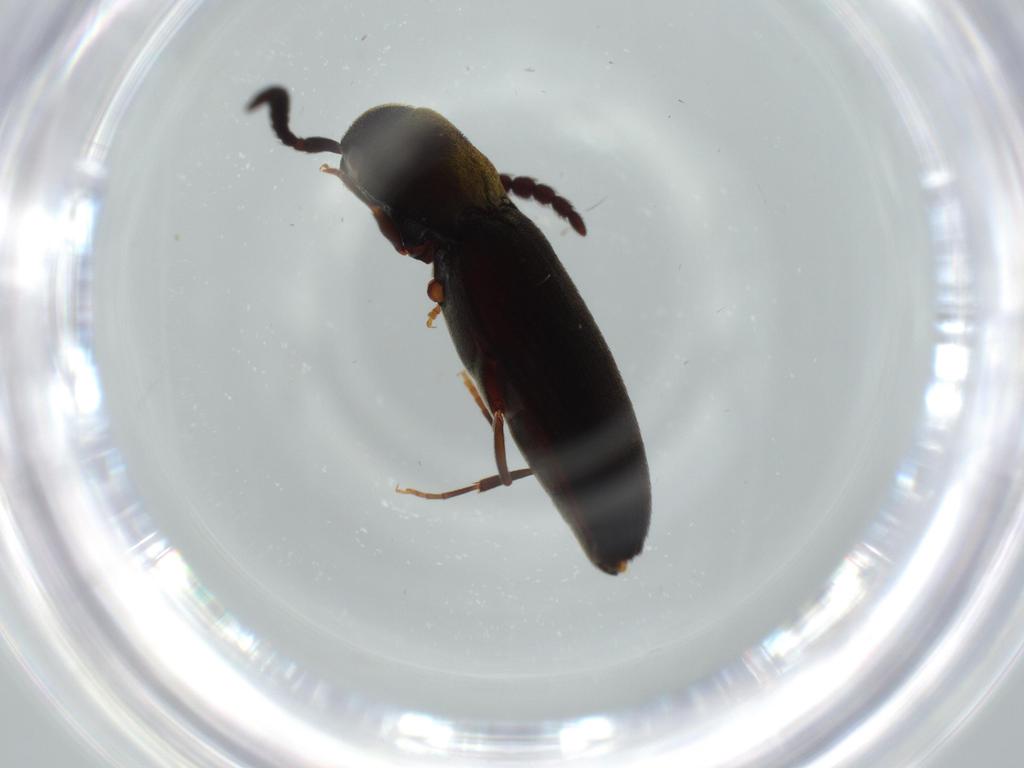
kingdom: Animalia
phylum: Arthropoda
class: Insecta
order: Coleoptera
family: Eucnemidae
